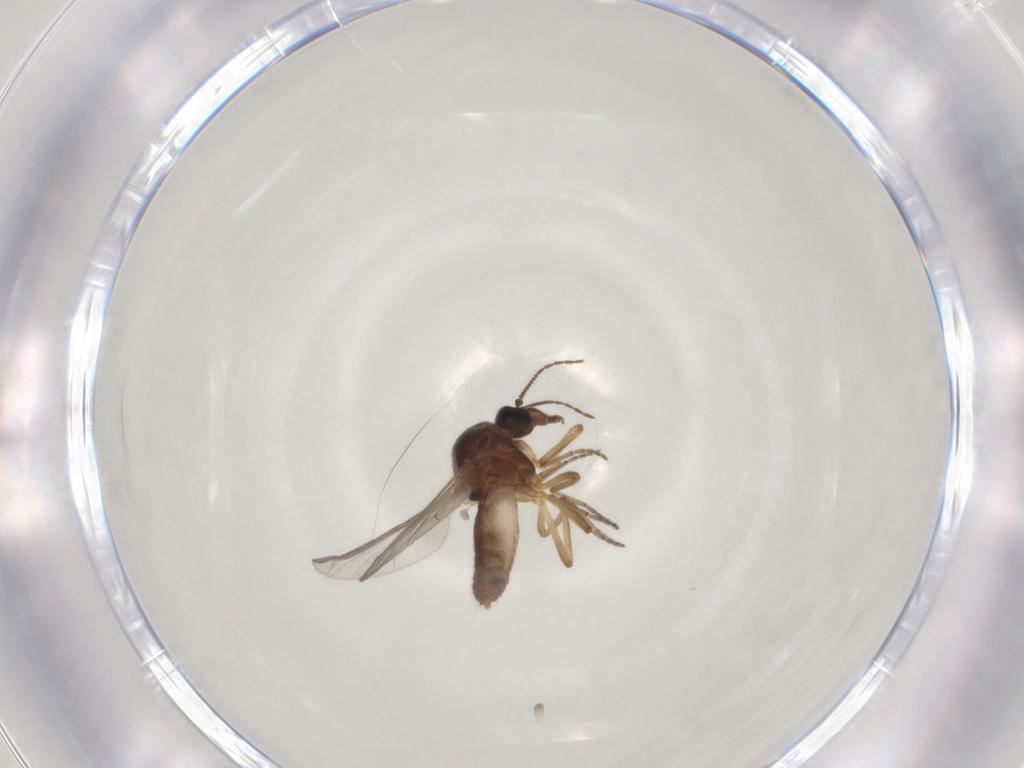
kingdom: Animalia
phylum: Arthropoda
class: Insecta
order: Diptera
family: Ceratopogonidae
